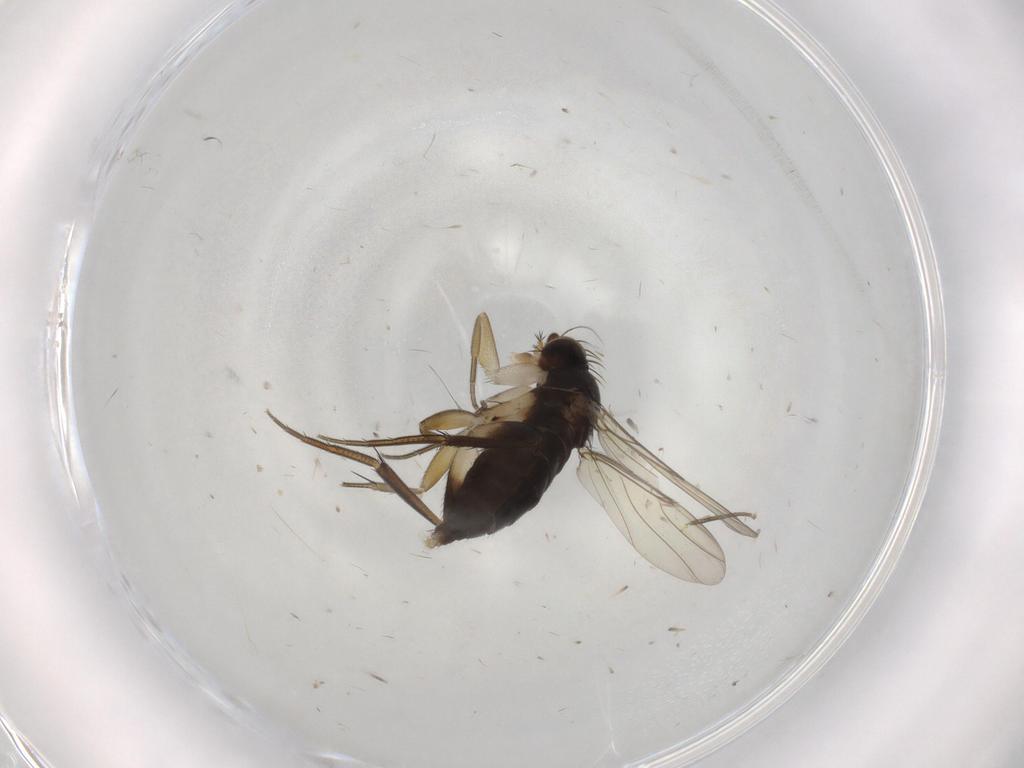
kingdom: Animalia
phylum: Arthropoda
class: Insecta
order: Diptera
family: Phoridae
